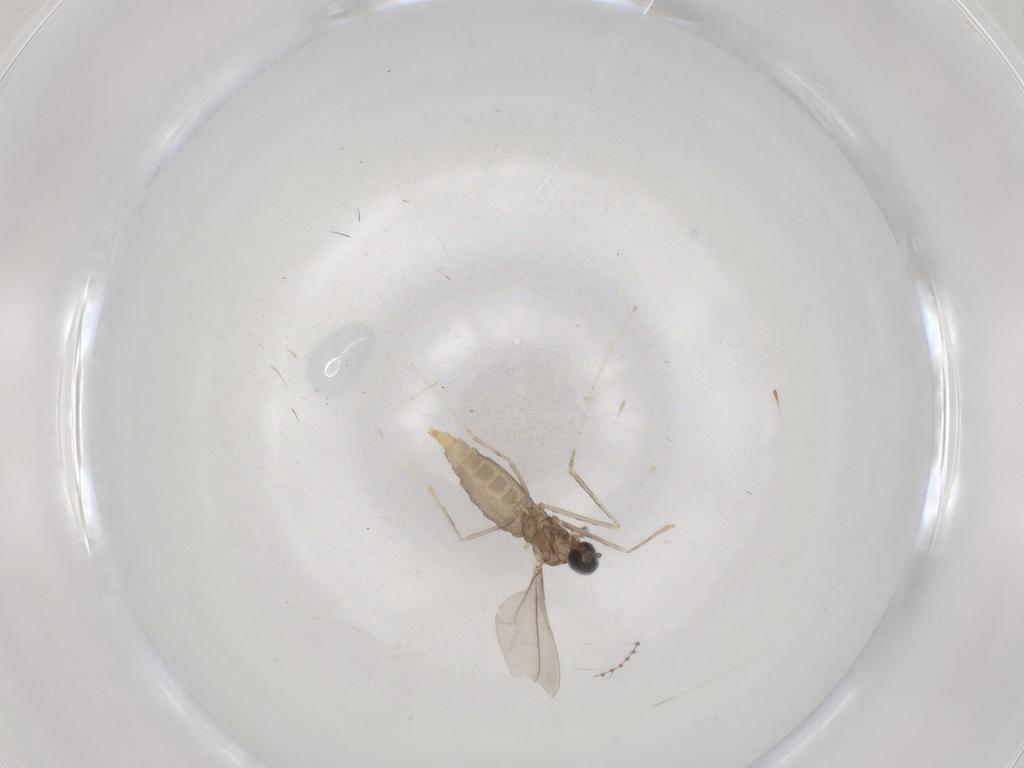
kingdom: Animalia
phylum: Arthropoda
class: Insecta
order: Diptera
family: Cecidomyiidae
